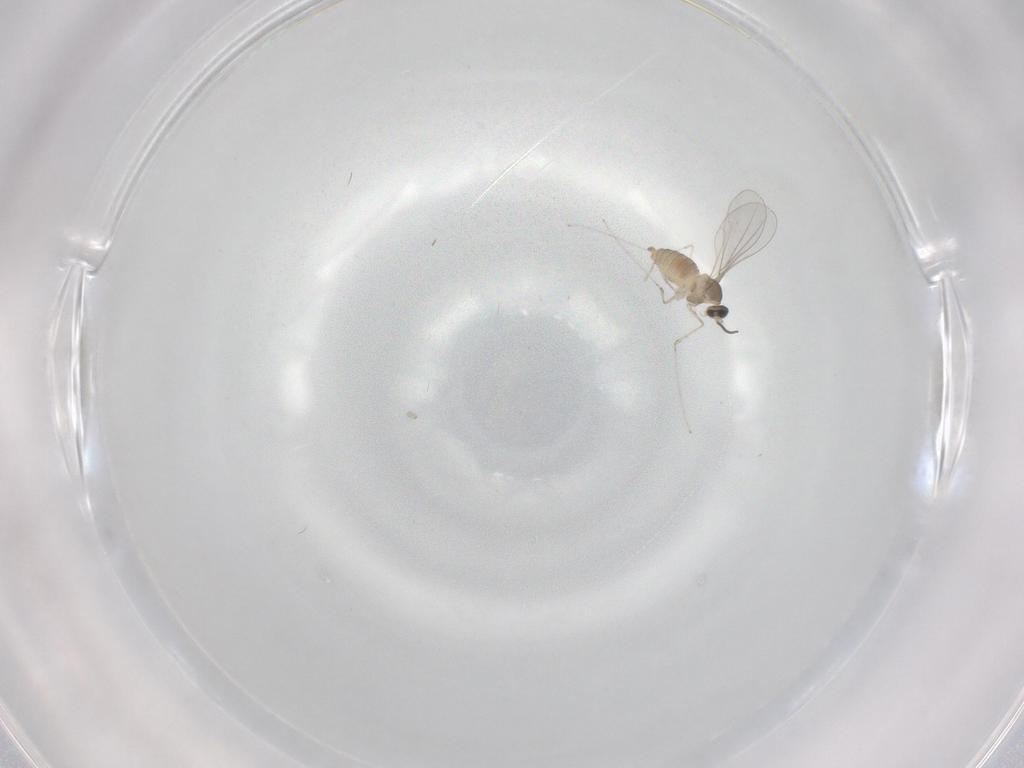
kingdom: Animalia
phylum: Arthropoda
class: Insecta
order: Diptera
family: Cecidomyiidae
